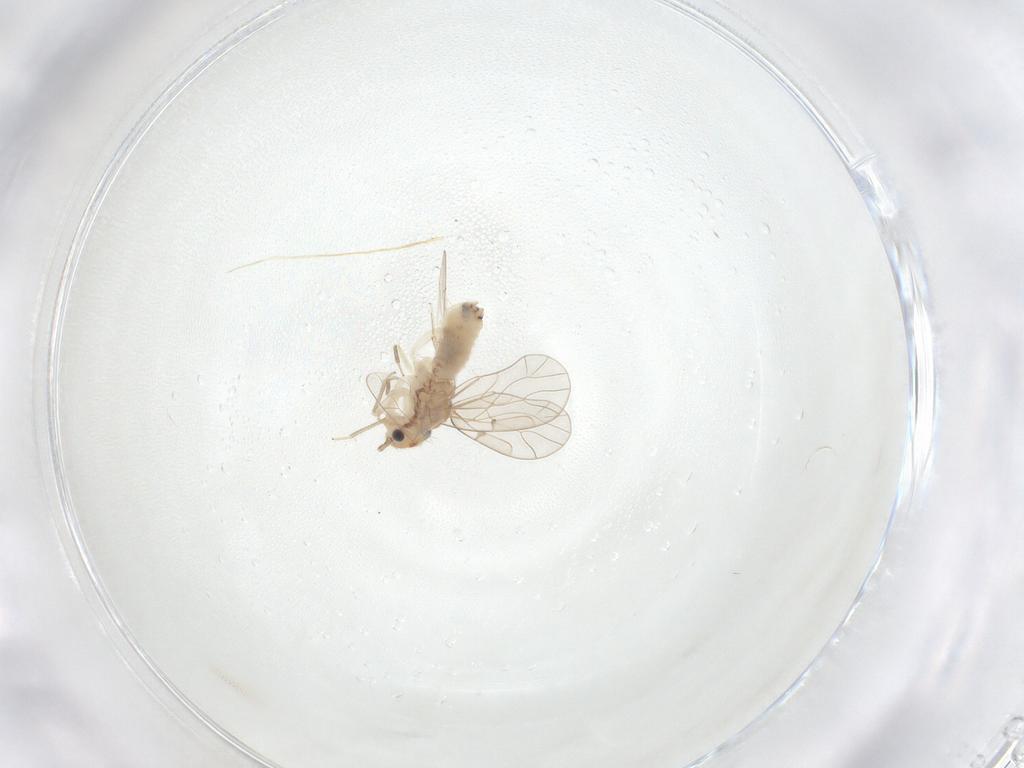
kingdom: Animalia
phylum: Arthropoda
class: Insecta
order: Psocodea
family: Ectopsocidae
